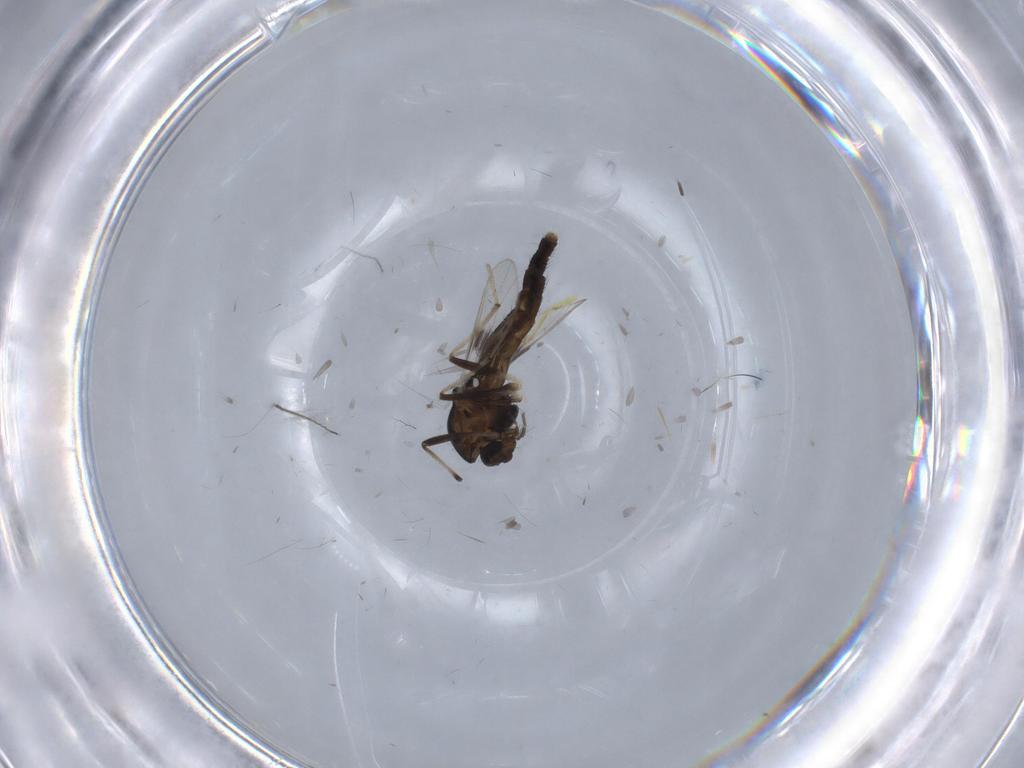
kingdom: Animalia
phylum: Arthropoda
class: Insecta
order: Diptera
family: Chironomidae
